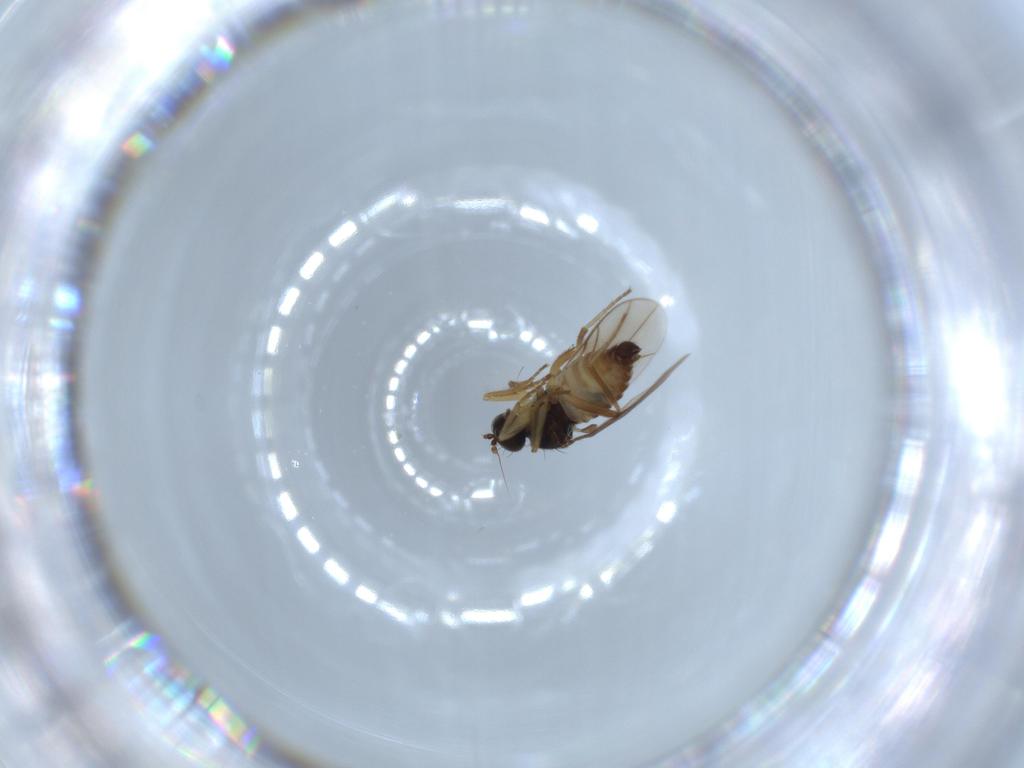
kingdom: Animalia
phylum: Arthropoda
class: Insecta
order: Diptera
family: Hybotidae
